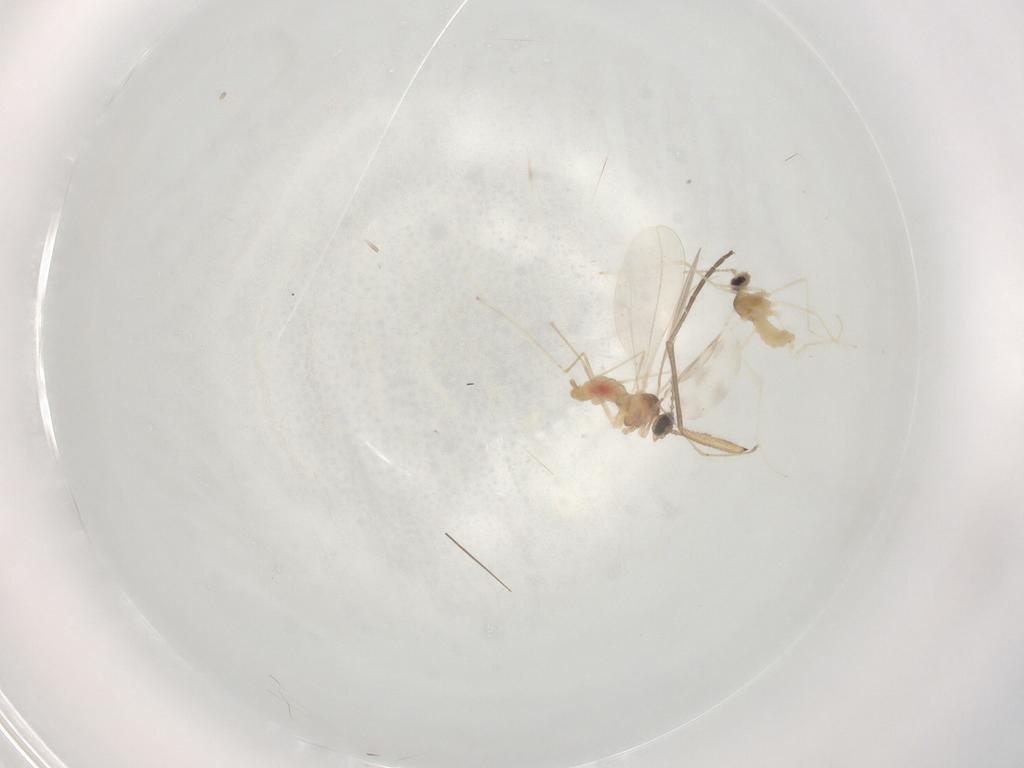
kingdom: Animalia
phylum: Arthropoda
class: Insecta
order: Diptera
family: Cecidomyiidae
